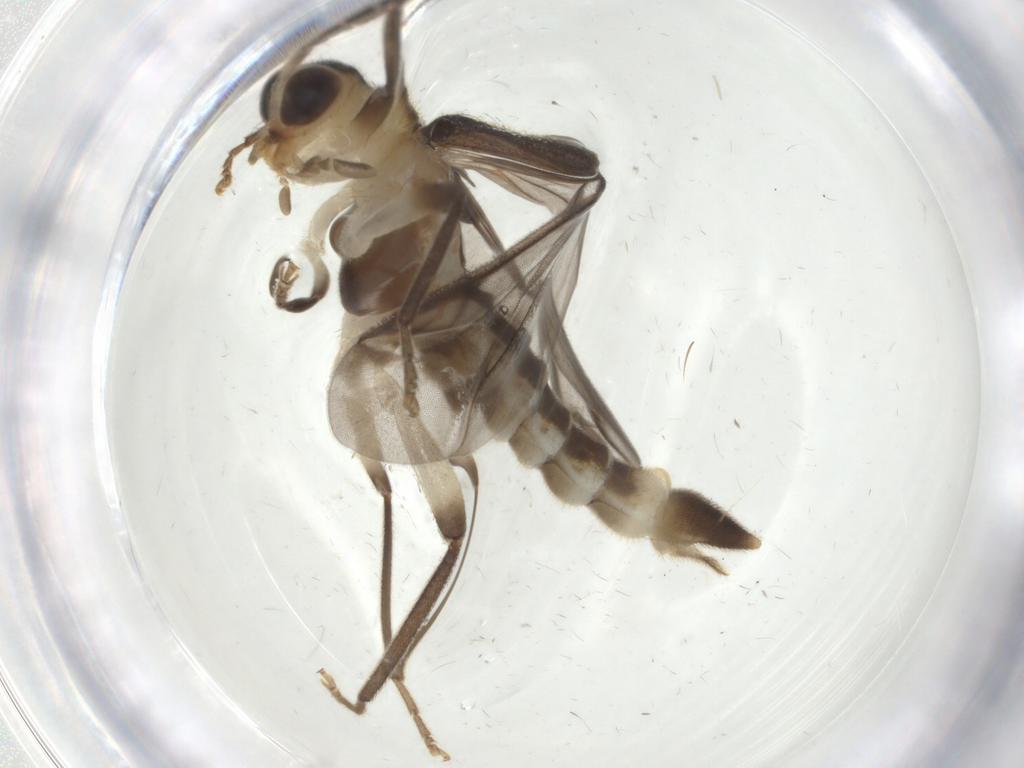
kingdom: Animalia
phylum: Arthropoda
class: Insecta
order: Coleoptera
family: Cantharidae
